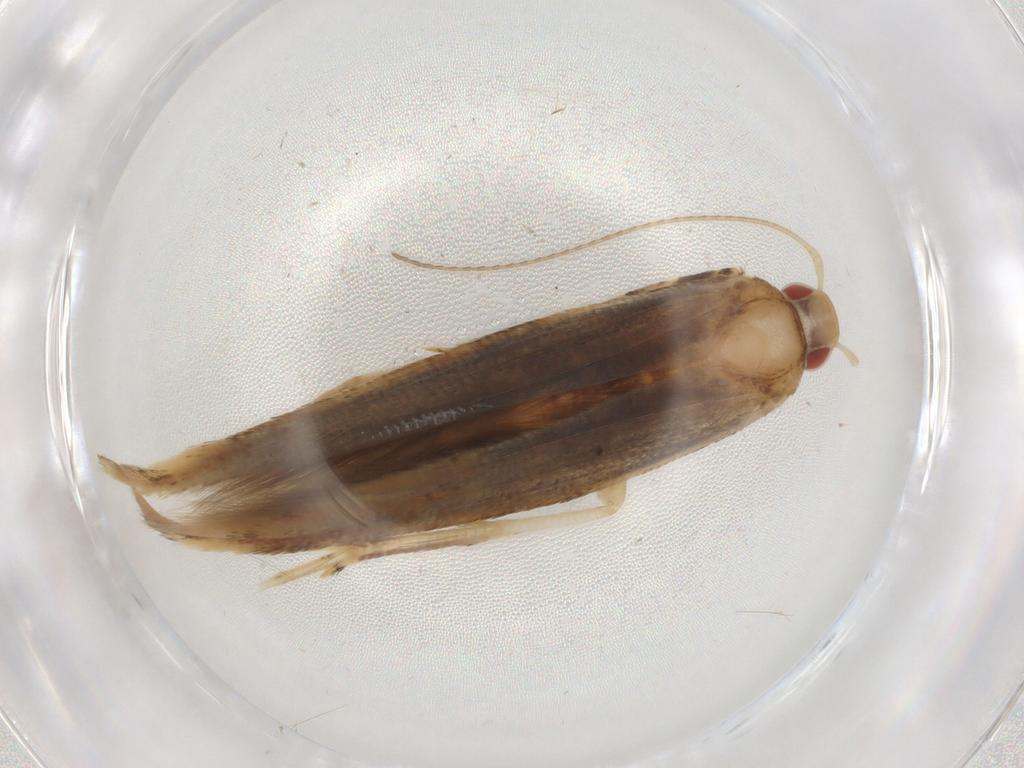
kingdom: Animalia
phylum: Arthropoda
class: Insecta
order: Lepidoptera
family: Cosmopterigidae
